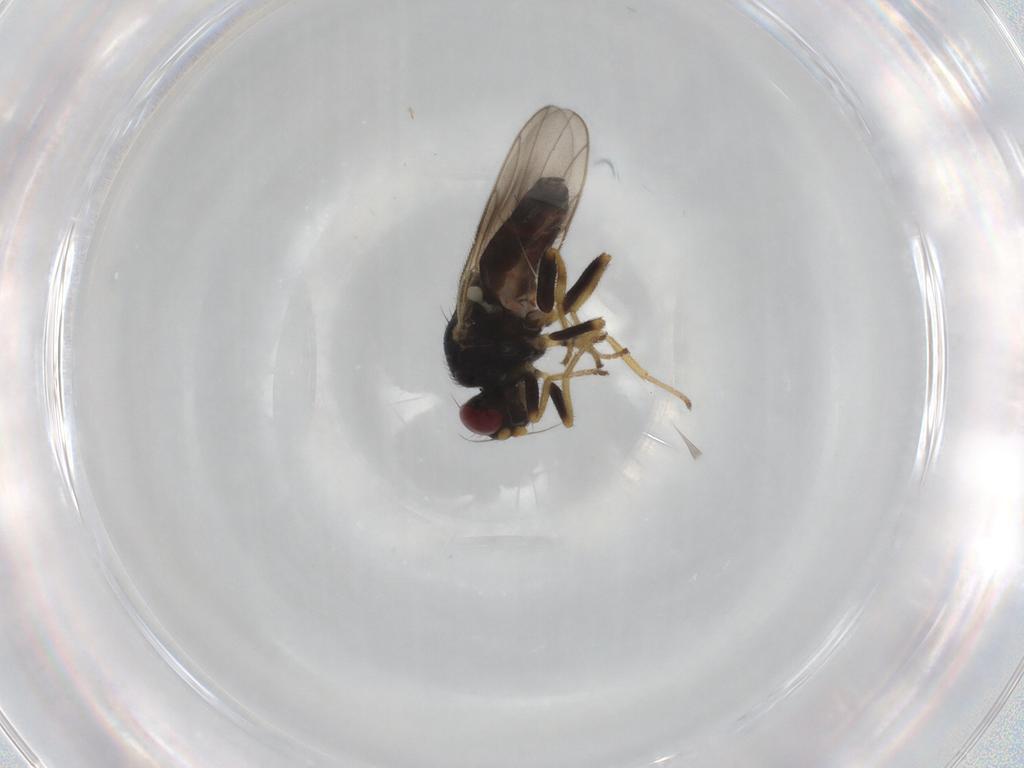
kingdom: Animalia
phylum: Arthropoda
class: Insecta
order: Diptera
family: Chloropidae
